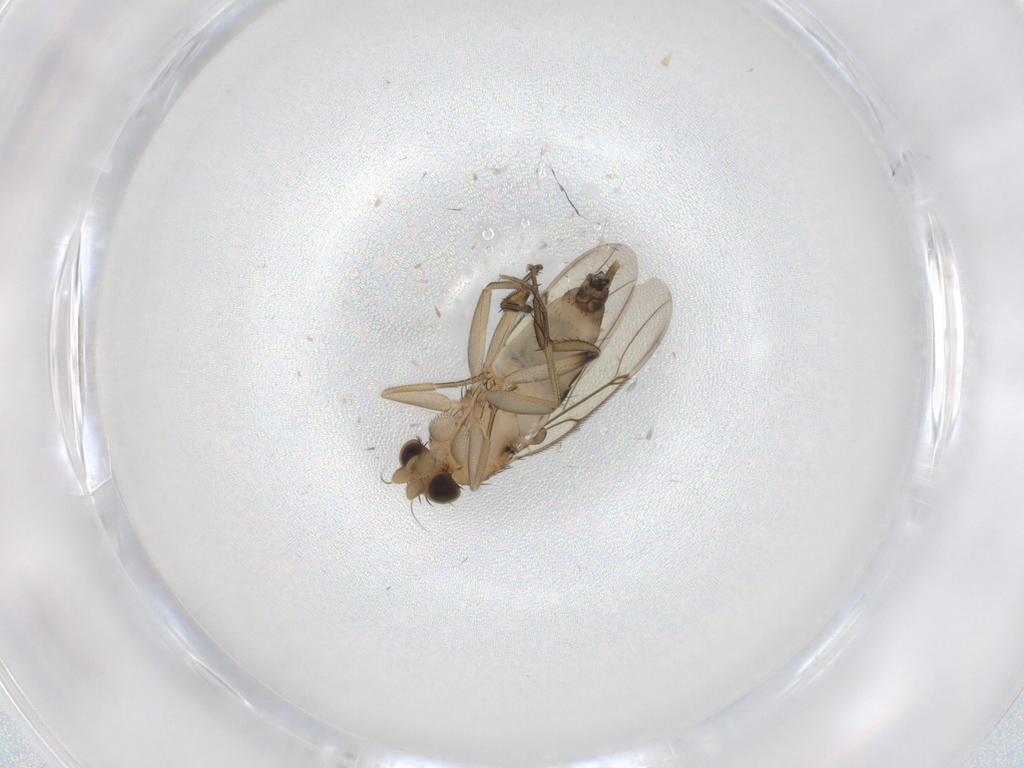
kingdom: Animalia
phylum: Arthropoda
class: Insecta
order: Diptera
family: Phoridae
